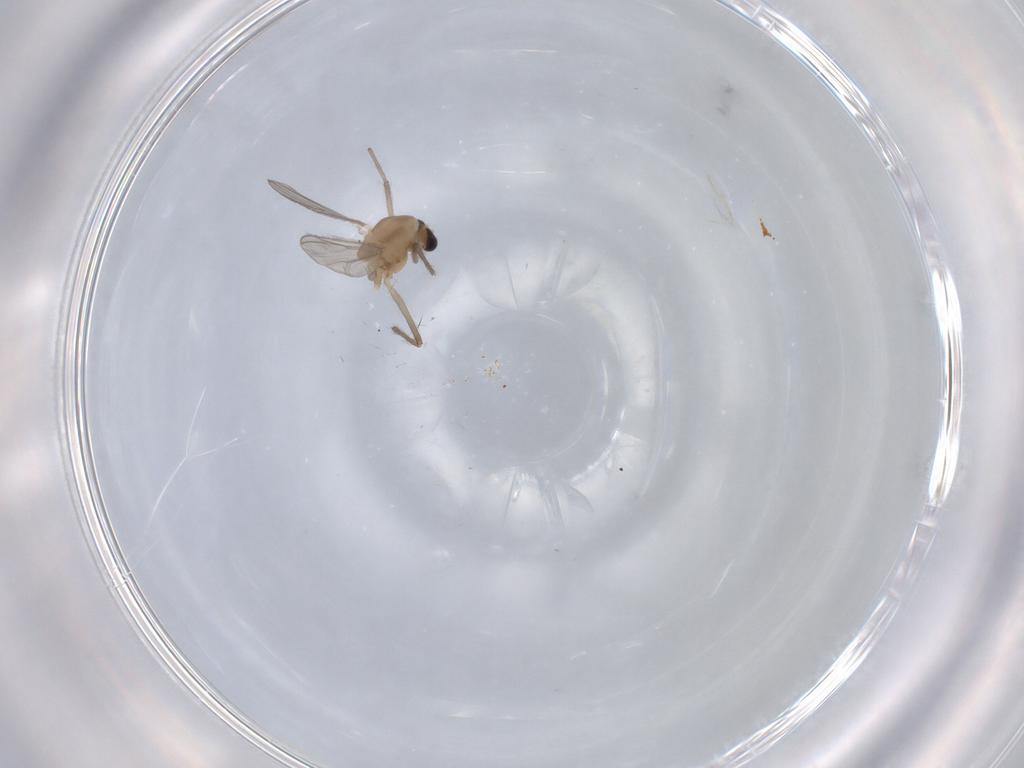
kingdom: Animalia
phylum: Arthropoda
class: Insecta
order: Diptera
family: Chironomidae
